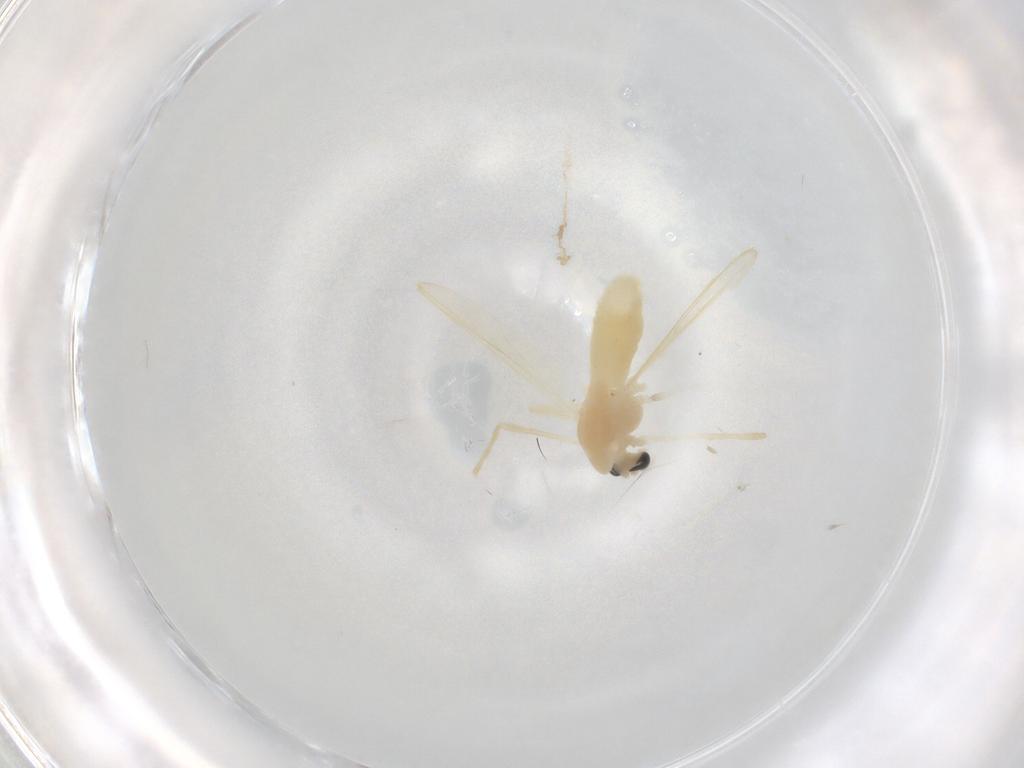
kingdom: Animalia
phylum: Arthropoda
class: Insecta
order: Diptera
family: Chironomidae
